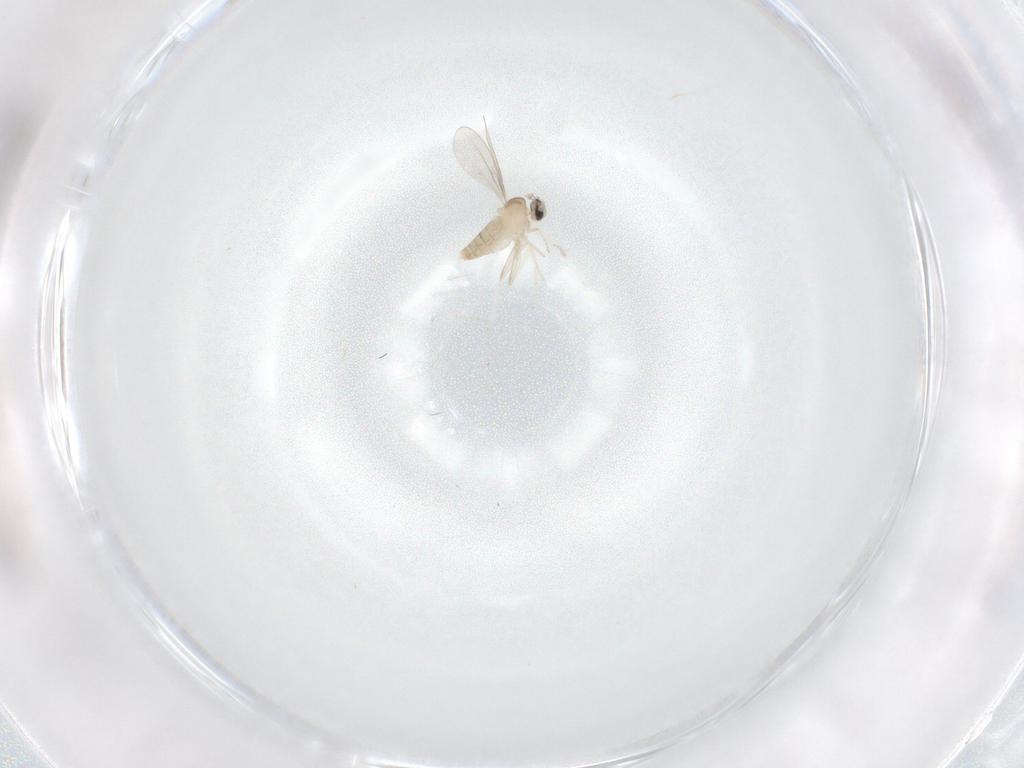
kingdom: Animalia
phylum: Arthropoda
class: Insecta
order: Diptera
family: Cecidomyiidae
